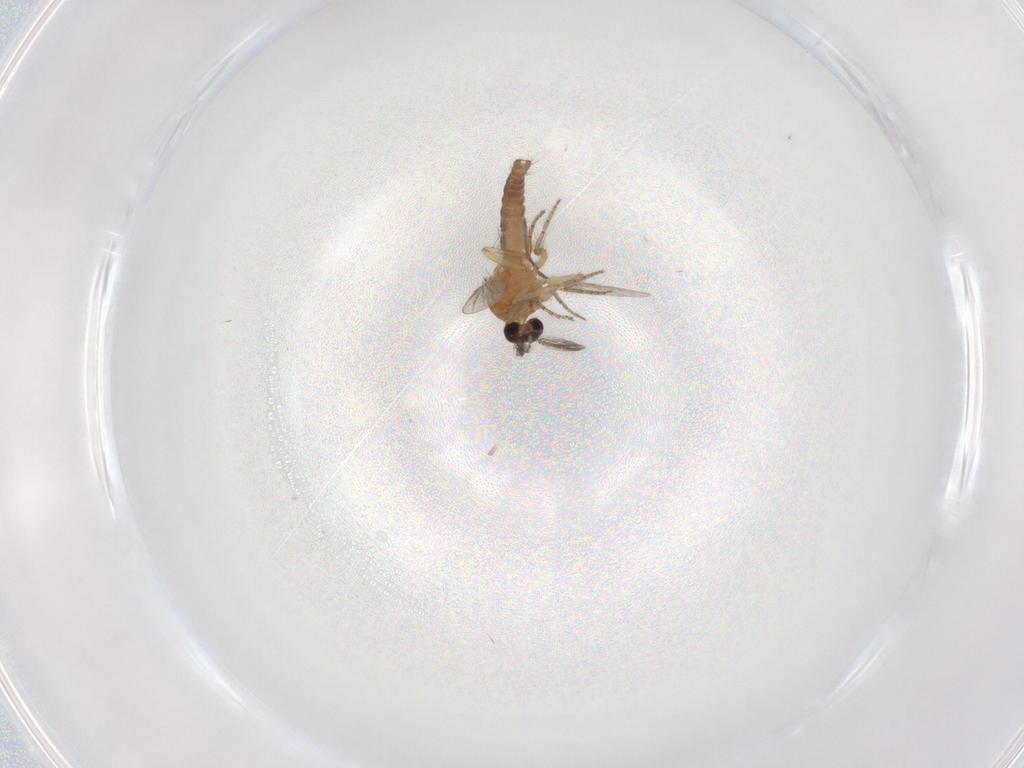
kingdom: Animalia
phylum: Arthropoda
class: Insecta
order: Diptera
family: Ceratopogonidae
